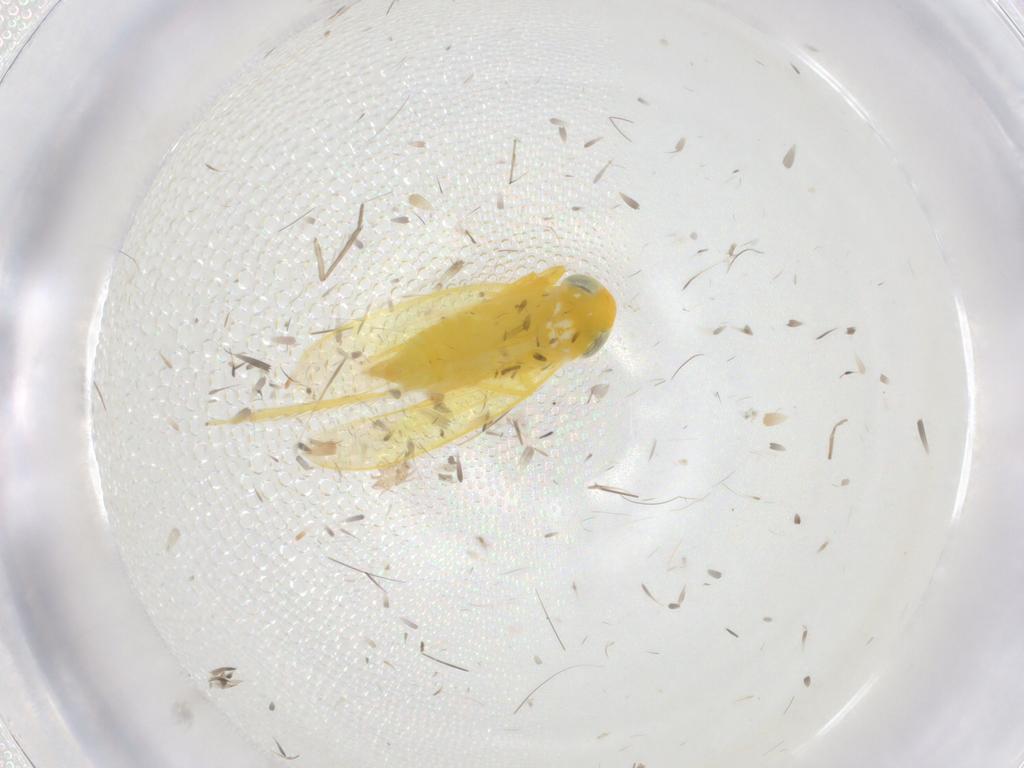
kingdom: Animalia
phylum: Arthropoda
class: Insecta
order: Hemiptera
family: Cicadellidae
